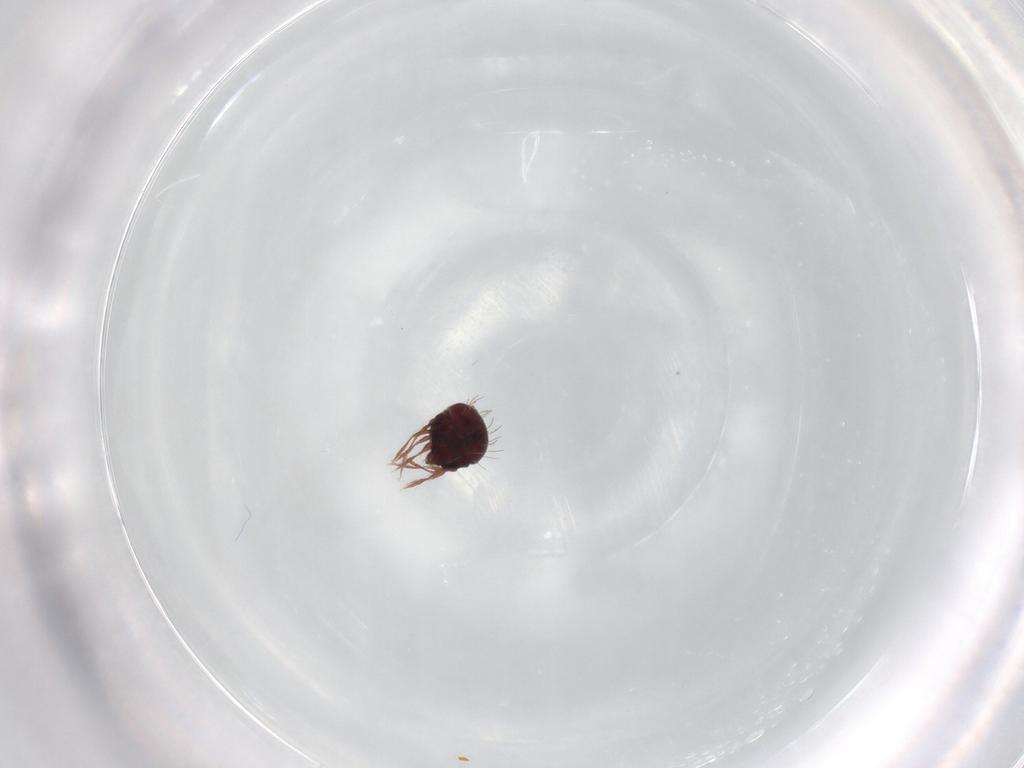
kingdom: Animalia
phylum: Arthropoda
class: Arachnida
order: Sarcoptiformes
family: Caloppiidae
